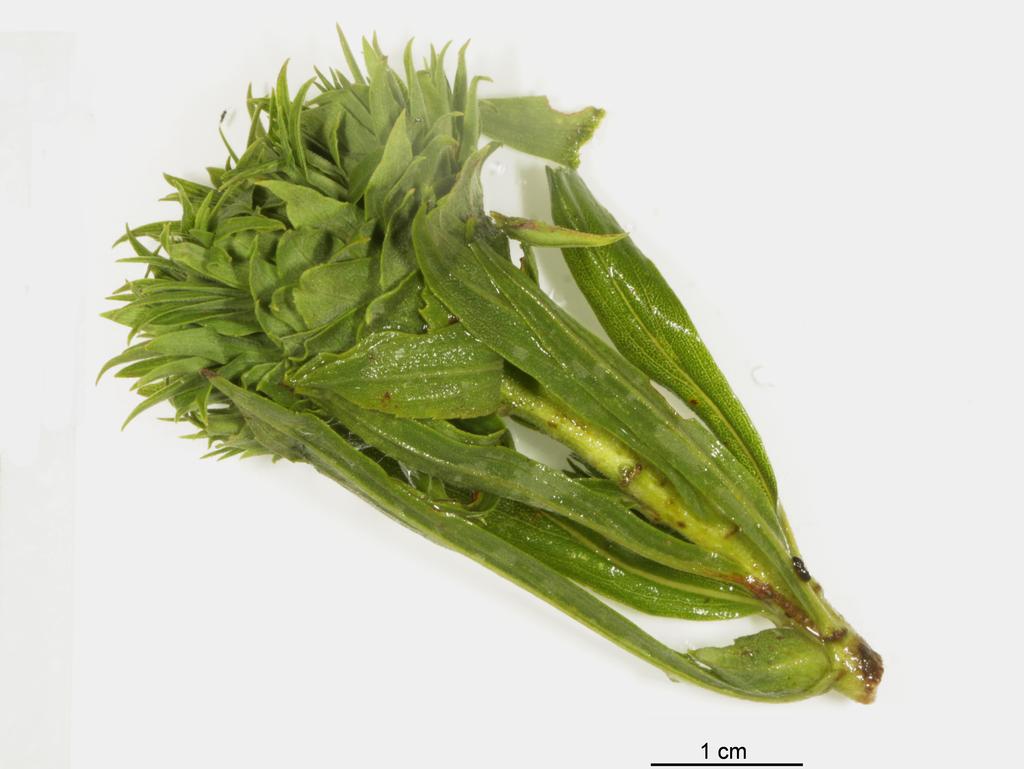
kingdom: Animalia
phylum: Arthropoda
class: Insecta
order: Hymenoptera
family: Pteromalidae
